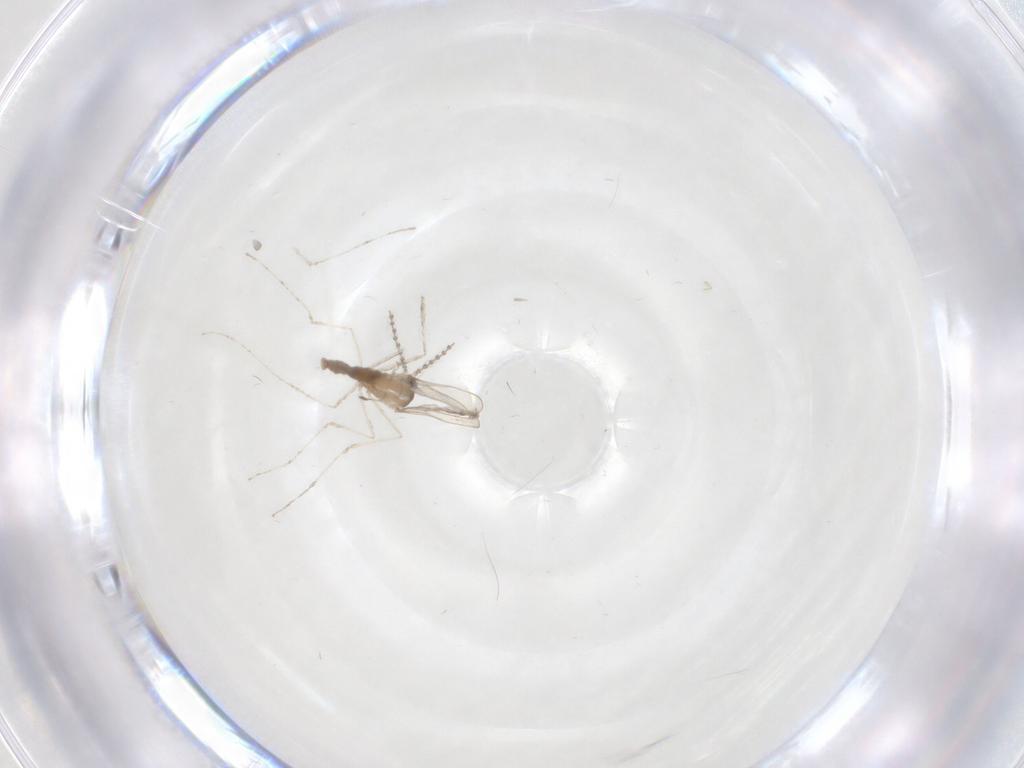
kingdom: Animalia
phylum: Arthropoda
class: Insecta
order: Diptera
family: Cecidomyiidae
